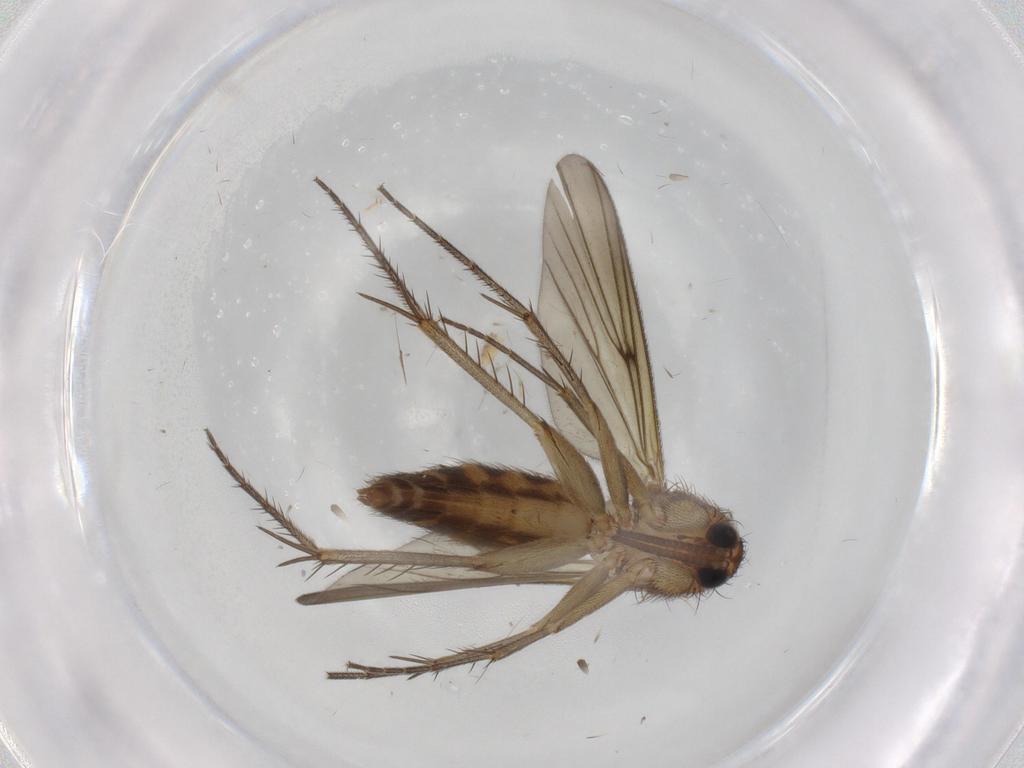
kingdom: Animalia
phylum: Arthropoda
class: Insecta
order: Diptera
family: Mycetophilidae
